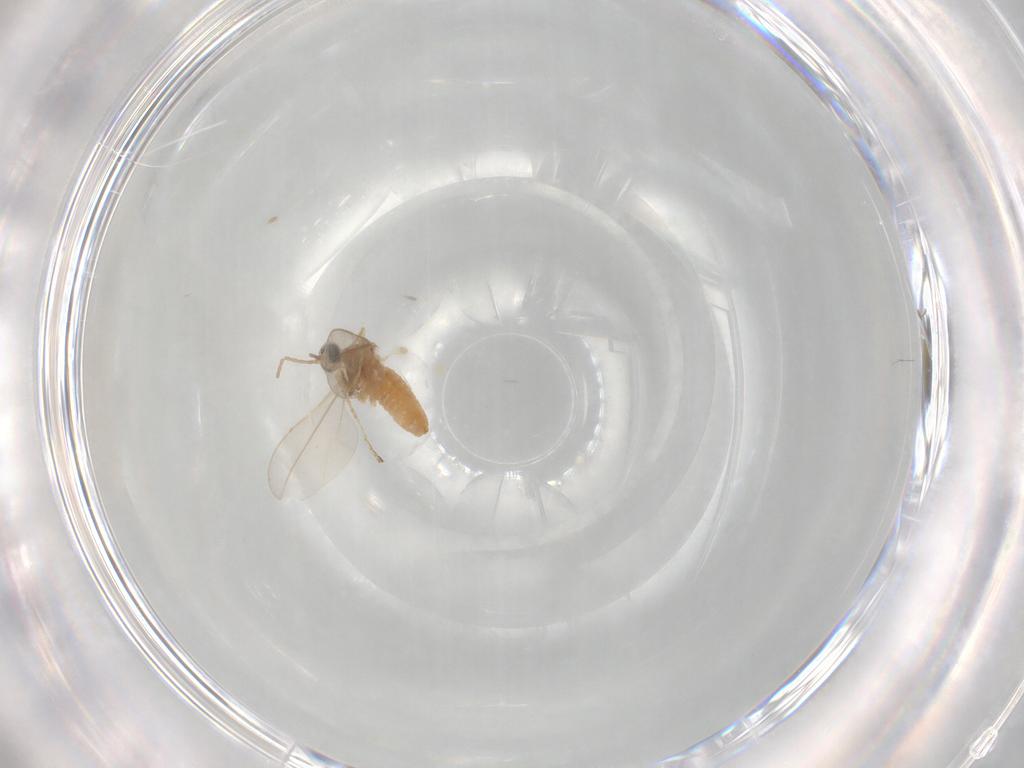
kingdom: Animalia
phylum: Arthropoda
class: Insecta
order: Diptera
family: Cecidomyiidae
